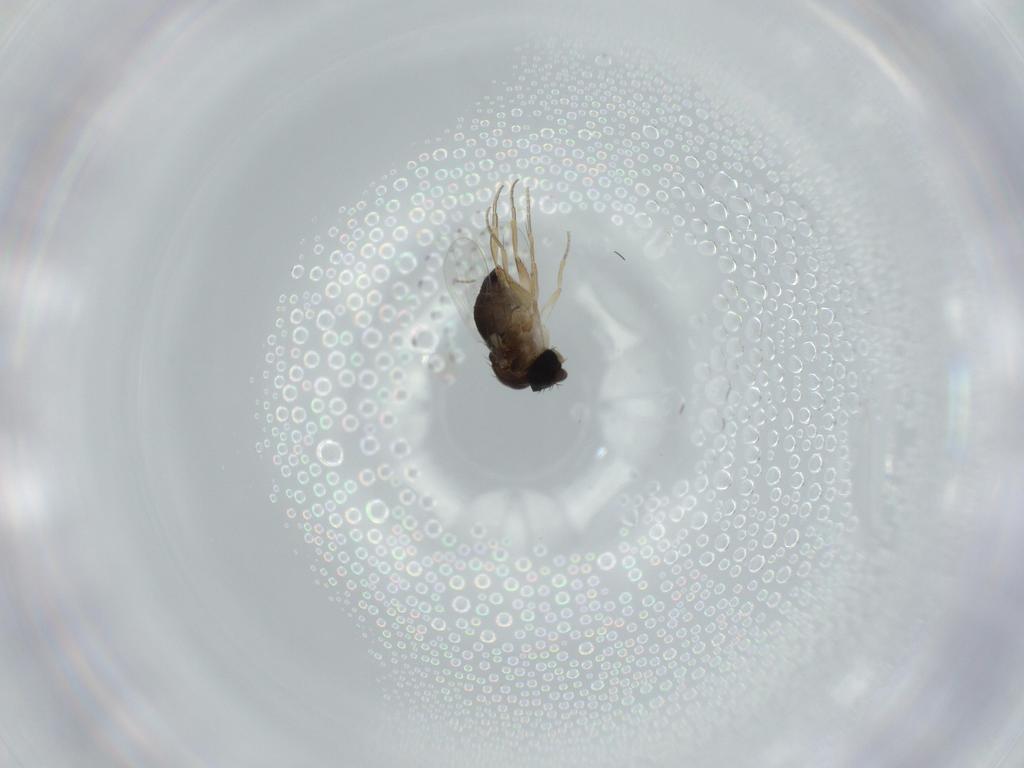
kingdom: Animalia
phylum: Arthropoda
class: Insecta
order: Diptera
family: Phoridae
